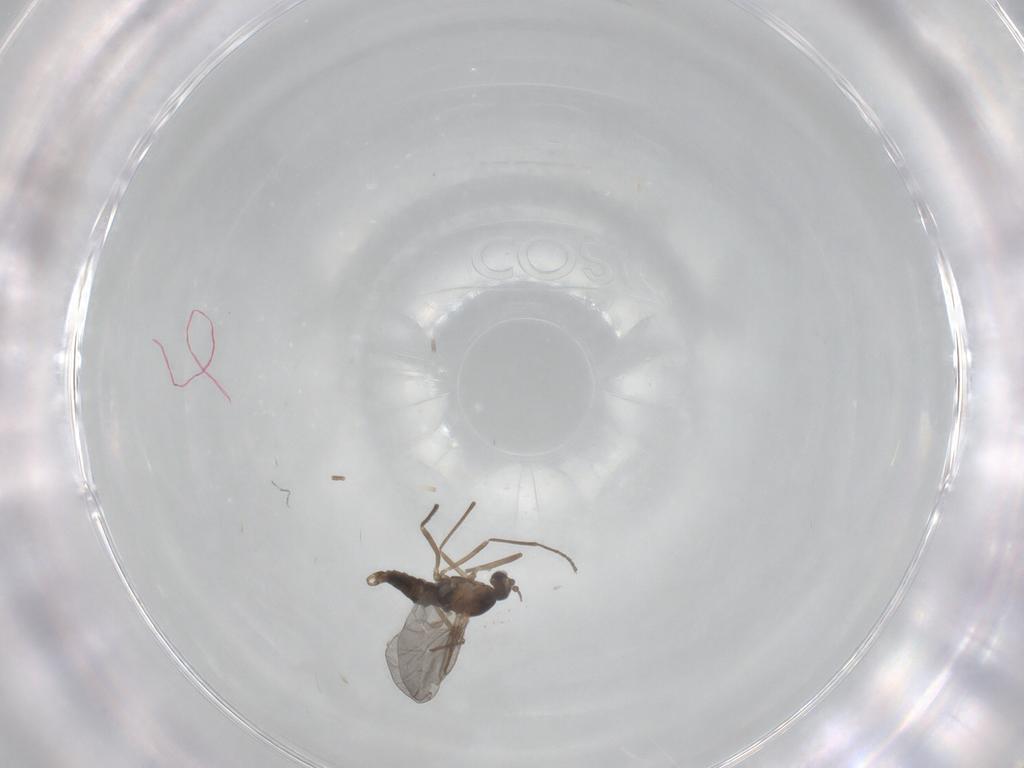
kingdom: Animalia
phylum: Arthropoda
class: Insecta
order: Diptera
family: Cecidomyiidae
